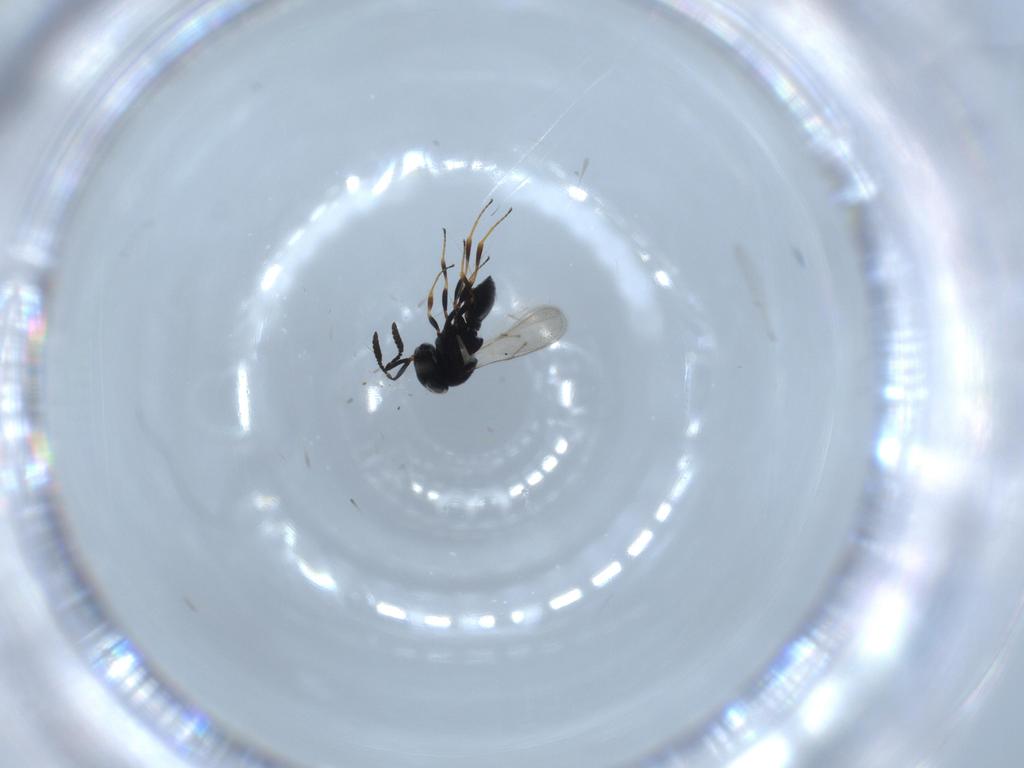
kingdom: Animalia
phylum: Arthropoda
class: Insecta
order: Hymenoptera
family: Scelionidae
